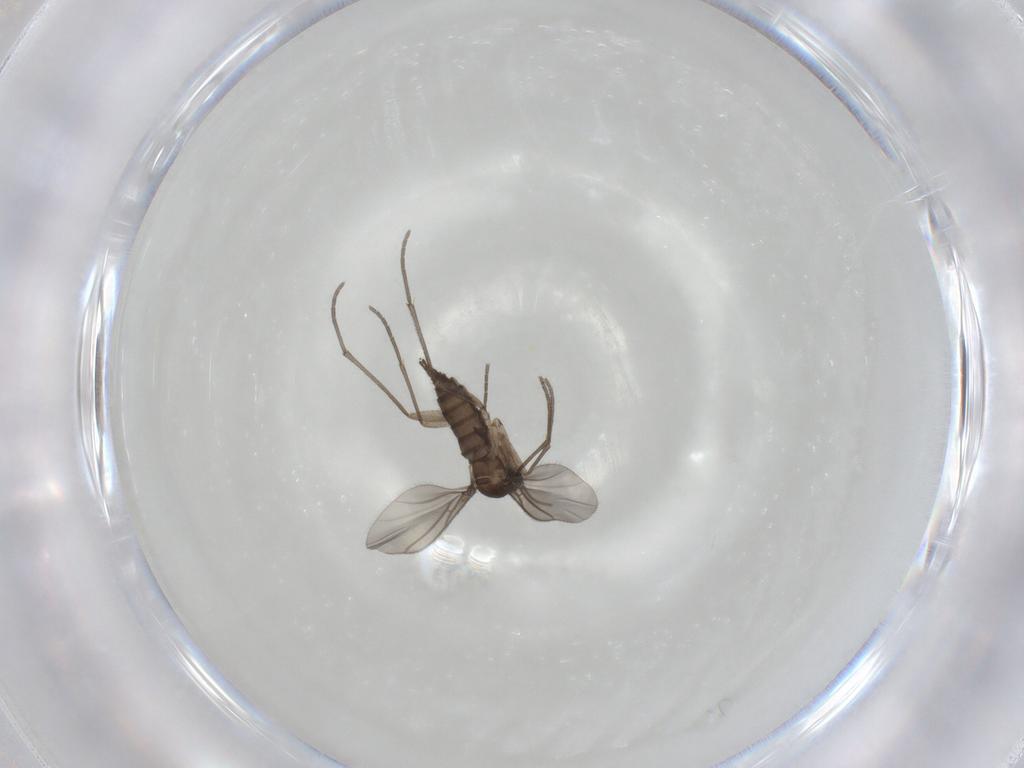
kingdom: Animalia
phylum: Arthropoda
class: Insecta
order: Diptera
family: Sciaridae
